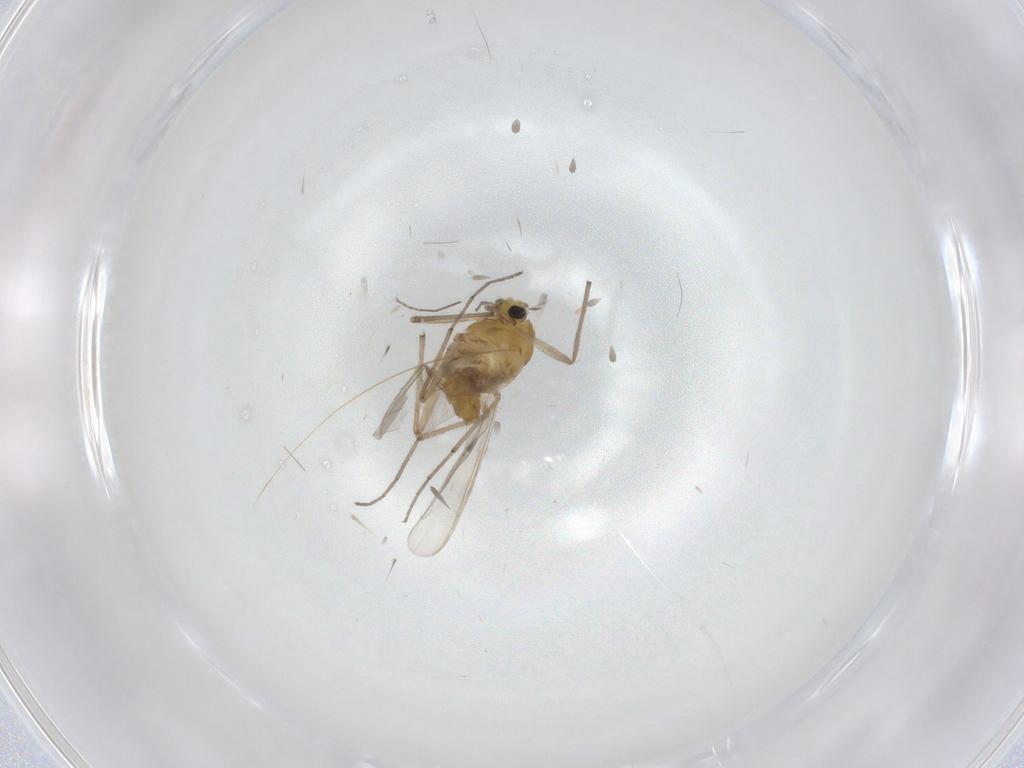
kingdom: Animalia
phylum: Arthropoda
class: Insecta
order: Diptera
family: Chironomidae
